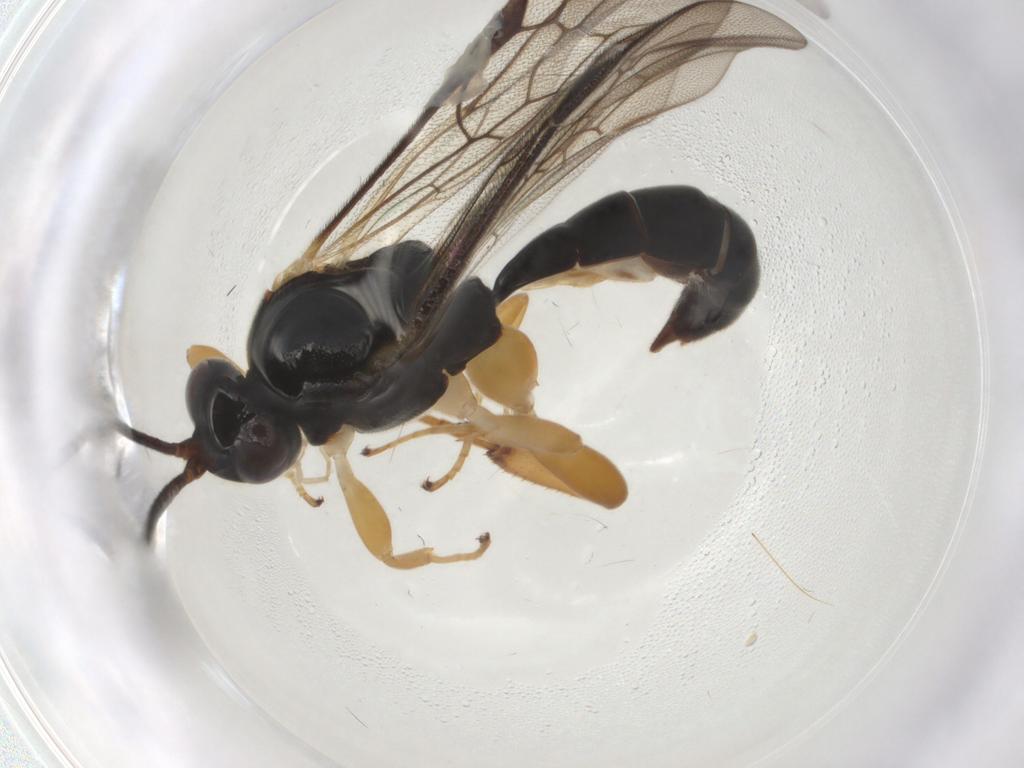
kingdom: Animalia
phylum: Arthropoda
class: Insecta
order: Hymenoptera
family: Ichneumonidae
